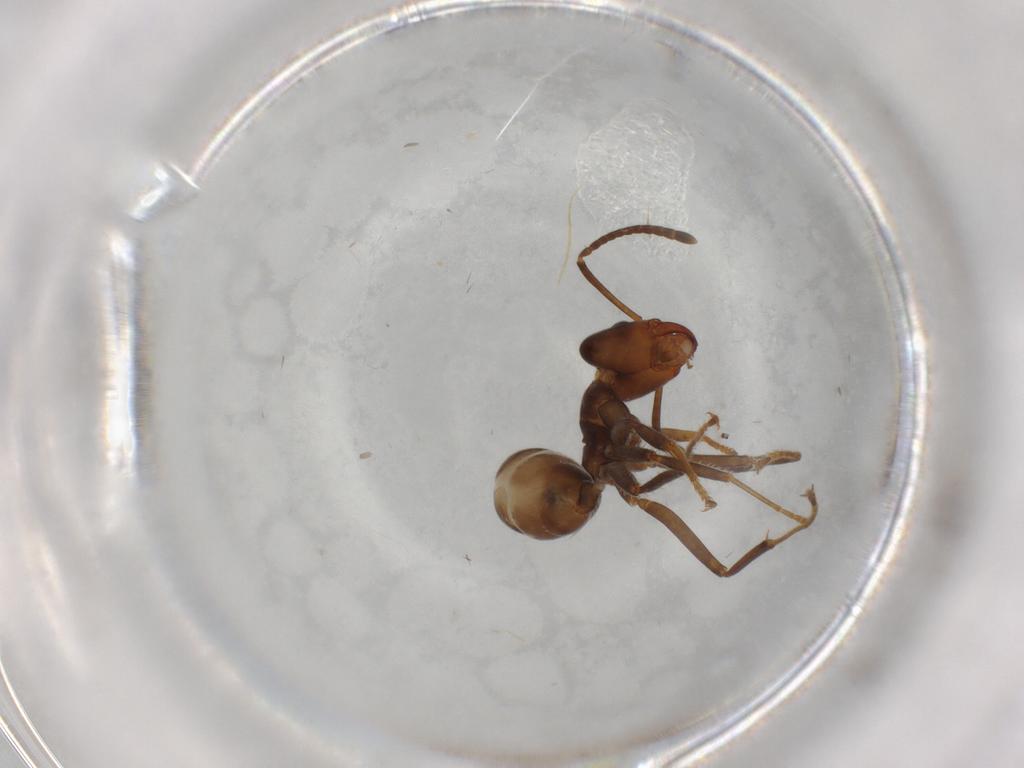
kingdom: Animalia
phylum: Arthropoda
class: Insecta
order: Hymenoptera
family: Formicidae
